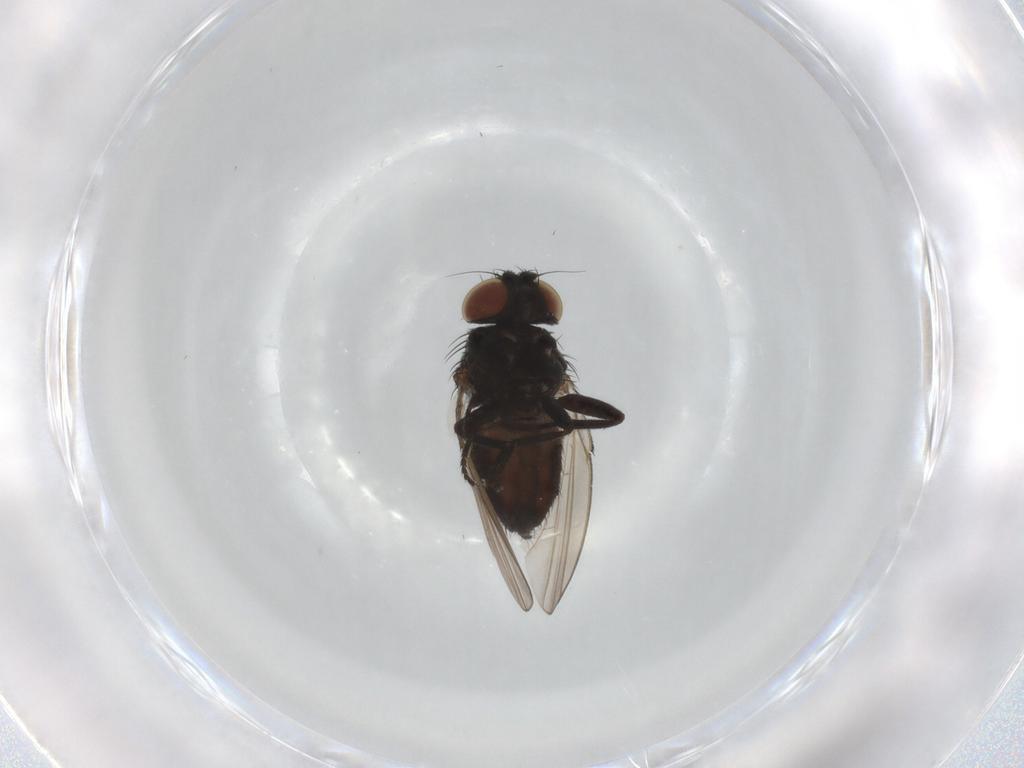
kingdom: Animalia
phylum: Arthropoda
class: Insecta
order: Diptera
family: Milichiidae
